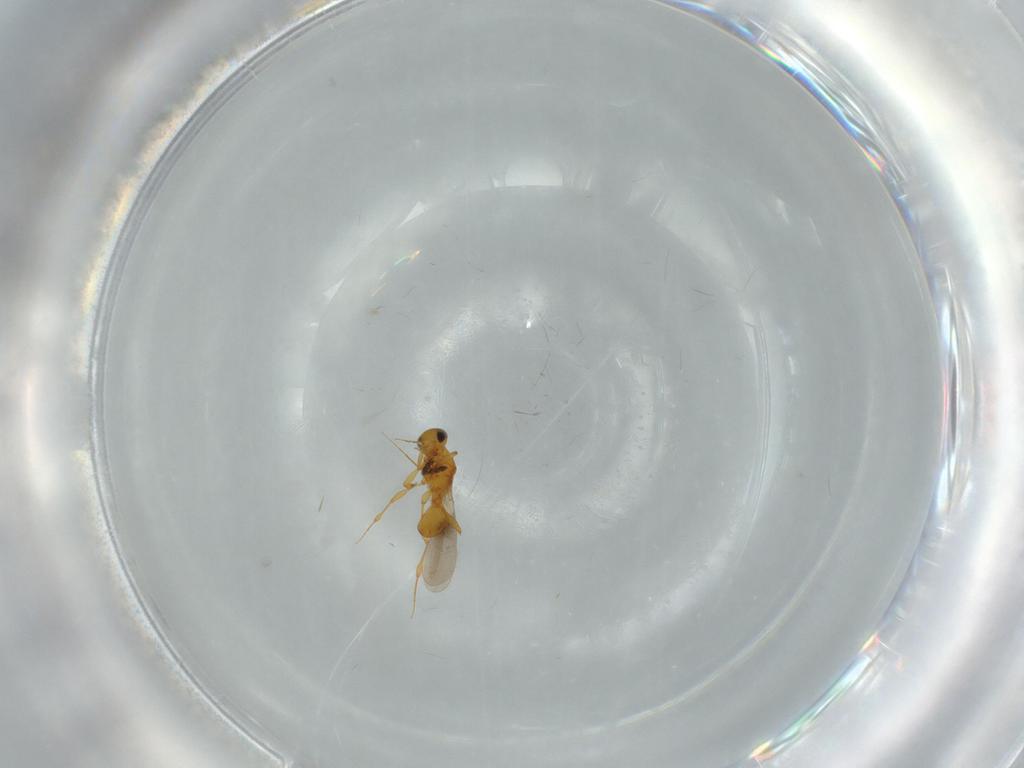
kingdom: Animalia
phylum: Arthropoda
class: Insecta
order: Hymenoptera
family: Platygastridae
